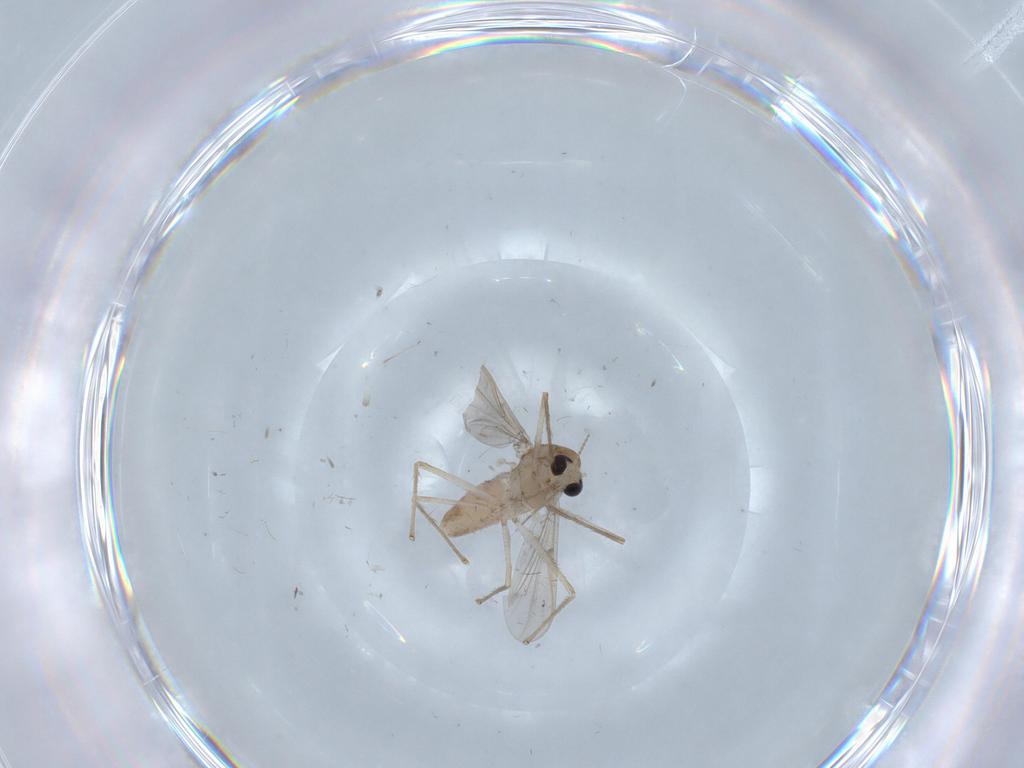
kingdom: Animalia
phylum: Arthropoda
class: Insecta
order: Diptera
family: Chironomidae
